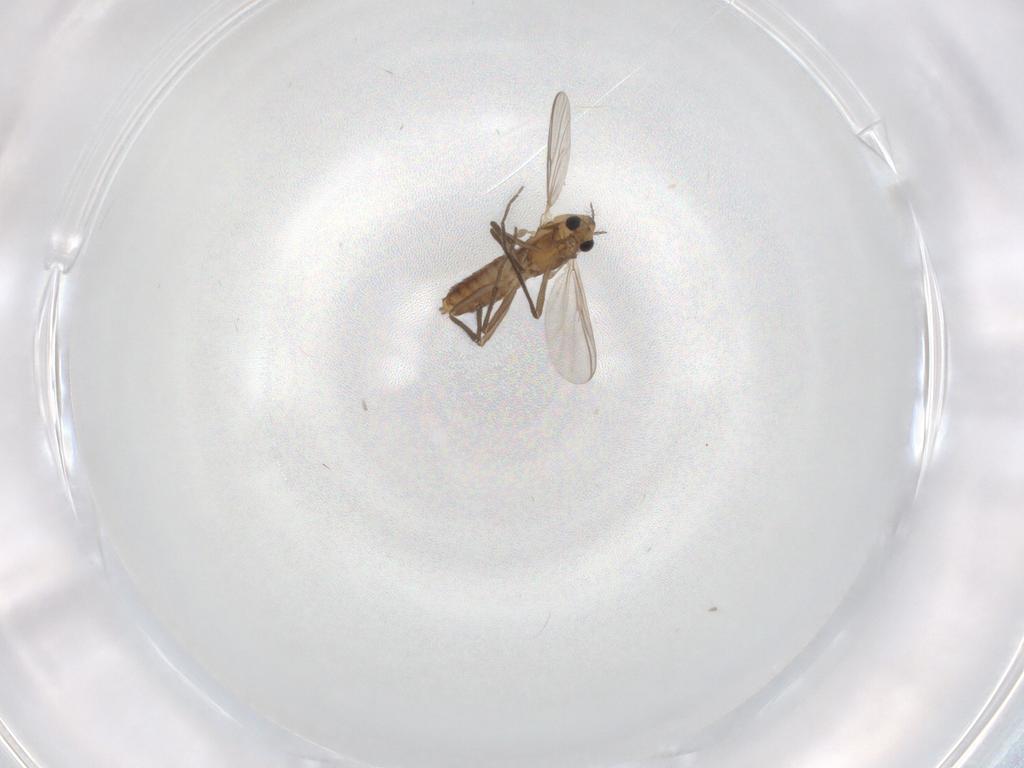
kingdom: Animalia
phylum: Arthropoda
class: Insecta
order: Diptera
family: Chironomidae
